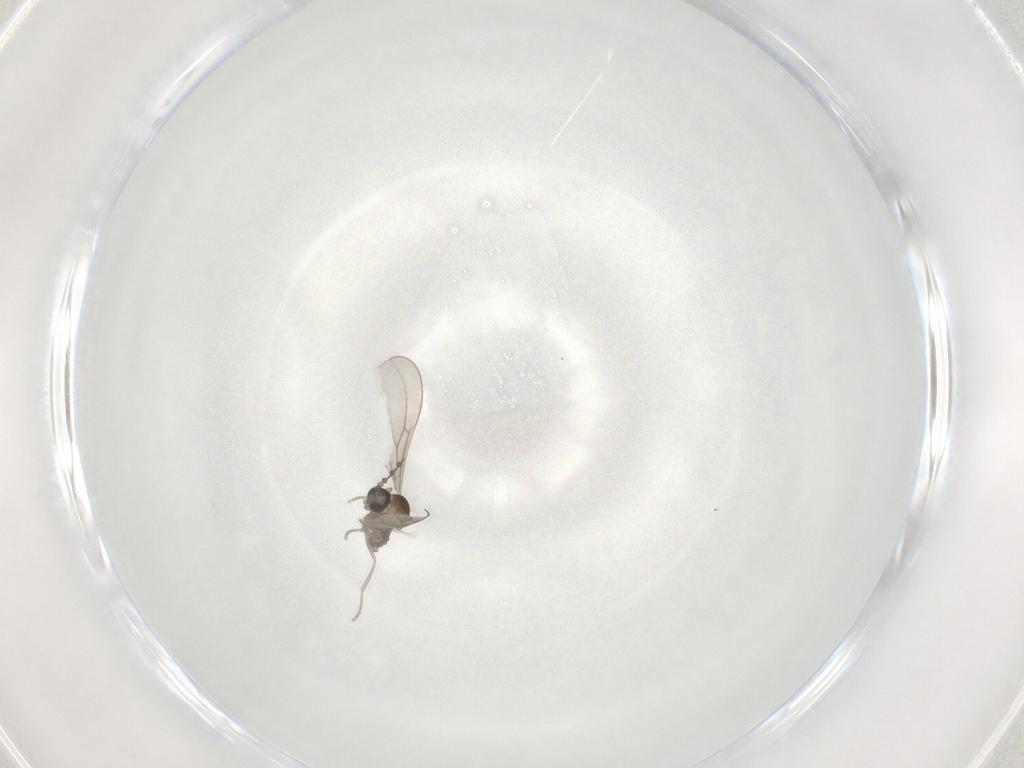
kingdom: Animalia
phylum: Arthropoda
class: Insecta
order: Diptera
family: Cecidomyiidae
